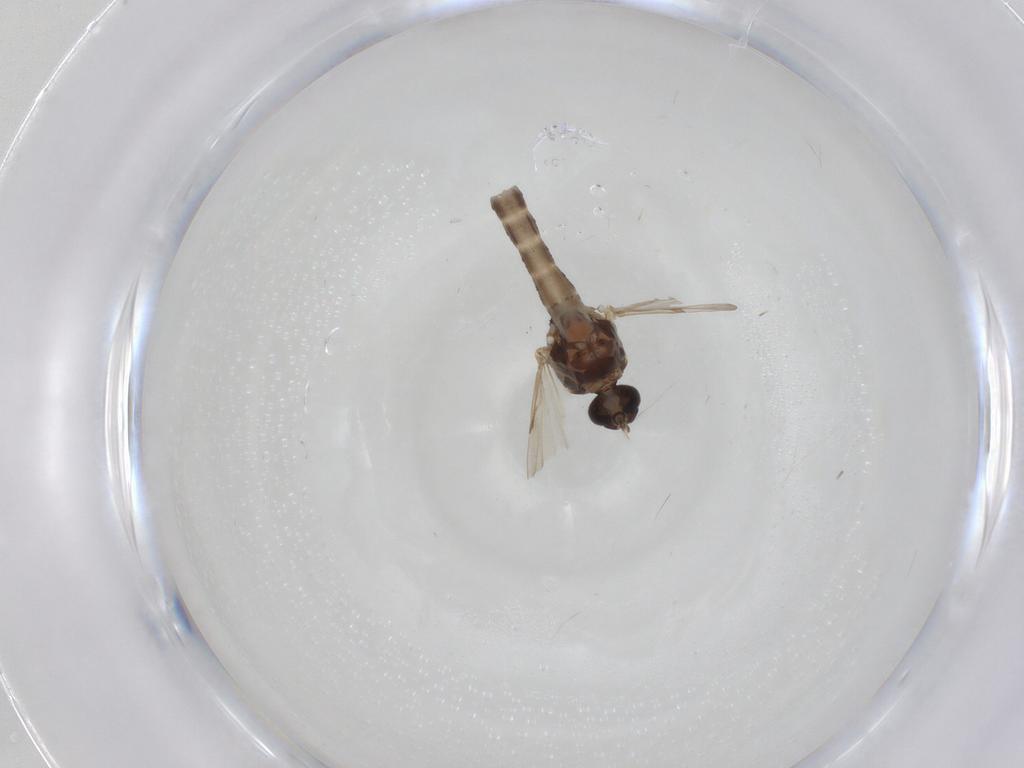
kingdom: Animalia
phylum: Arthropoda
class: Insecta
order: Diptera
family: Ceratopogonidae
